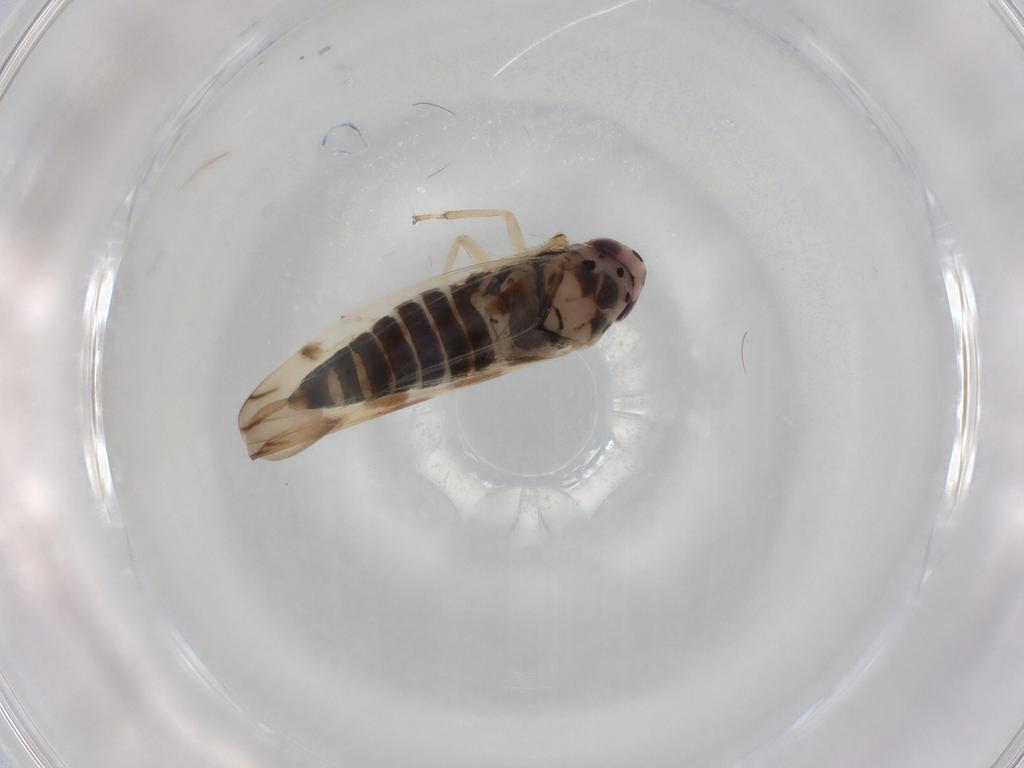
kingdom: Animalia
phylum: Arthropoda
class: Insecta
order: Hemiptera
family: Cicadellidae
